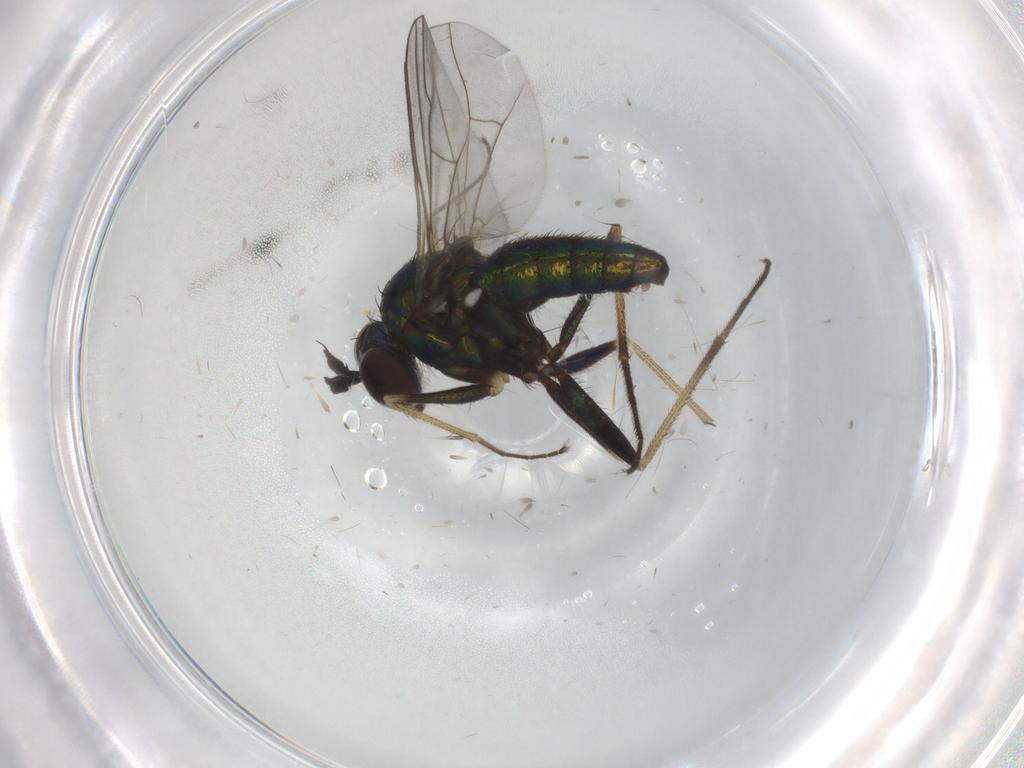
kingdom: Animalia
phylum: Arthropoda
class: Insecta
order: Diptera
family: Dolichopodidae
